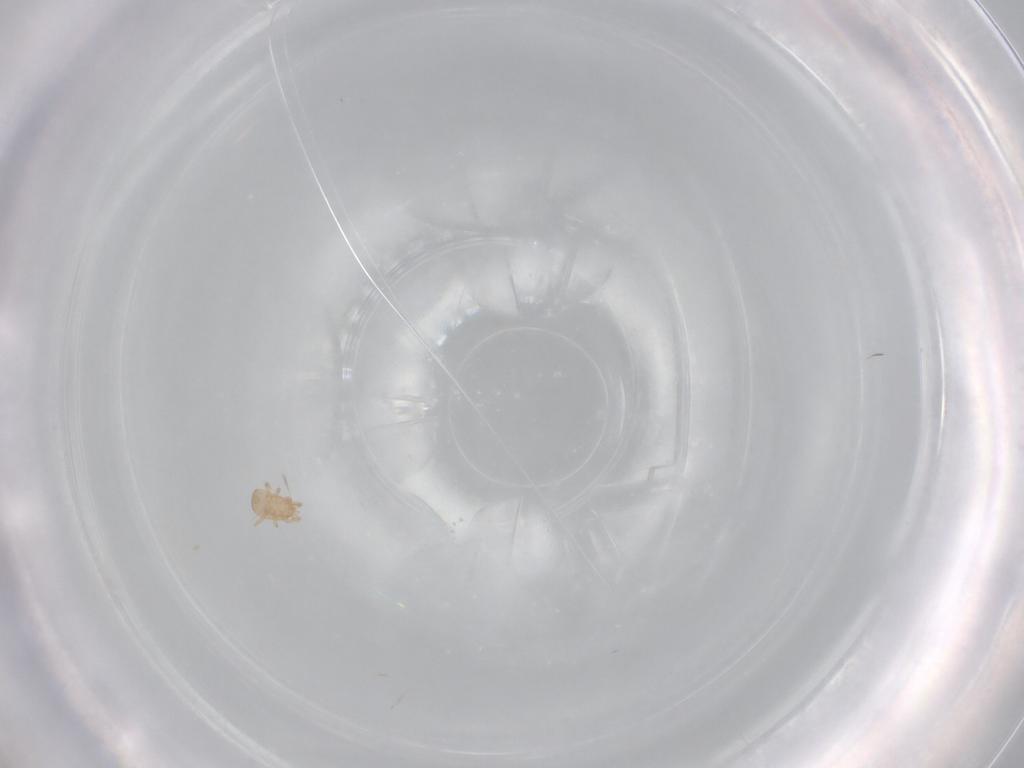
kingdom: Animalia
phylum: Arthropoda
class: Arachnida
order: Mesostigmata
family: Ascidae
